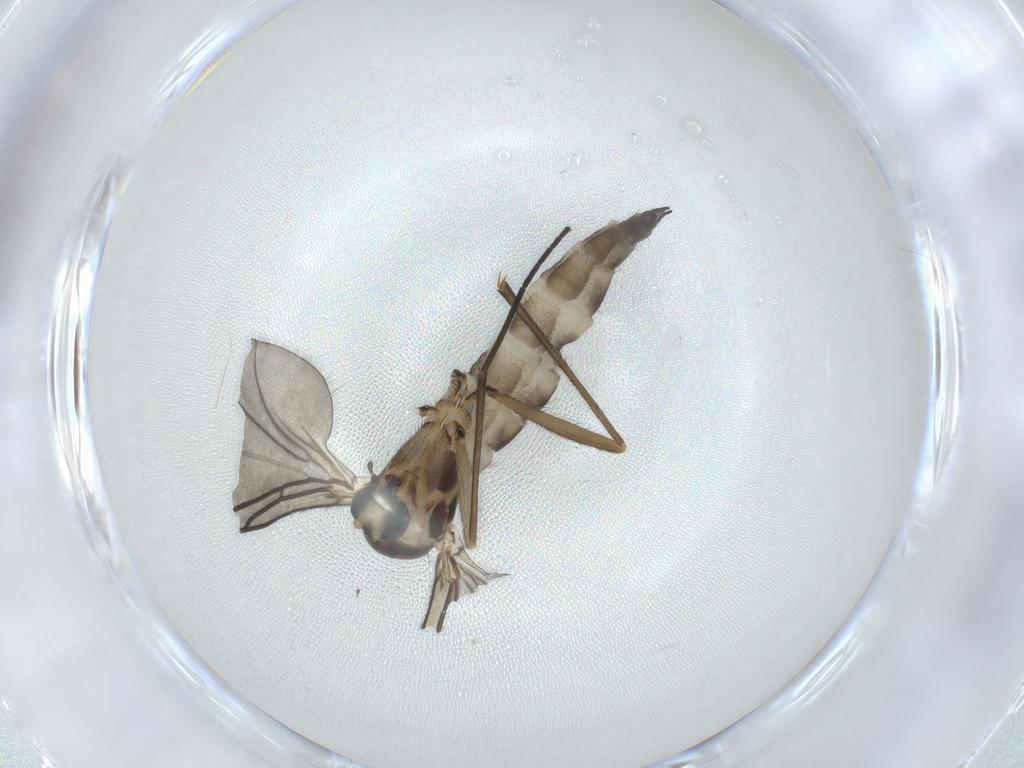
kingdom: Animalia
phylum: Arthropoda
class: Insecta
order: Diptera
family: Sciaridae
